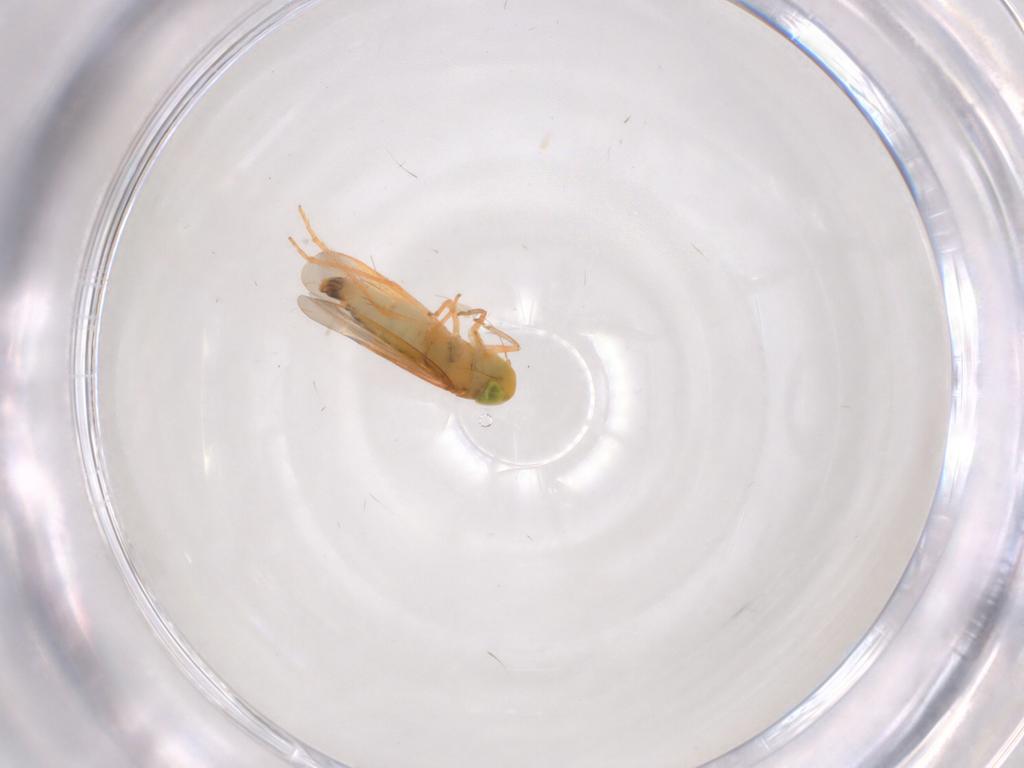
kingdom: Animalia
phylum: Arthropoda
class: Insecta
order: Hemiptera
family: Cicadellidae
